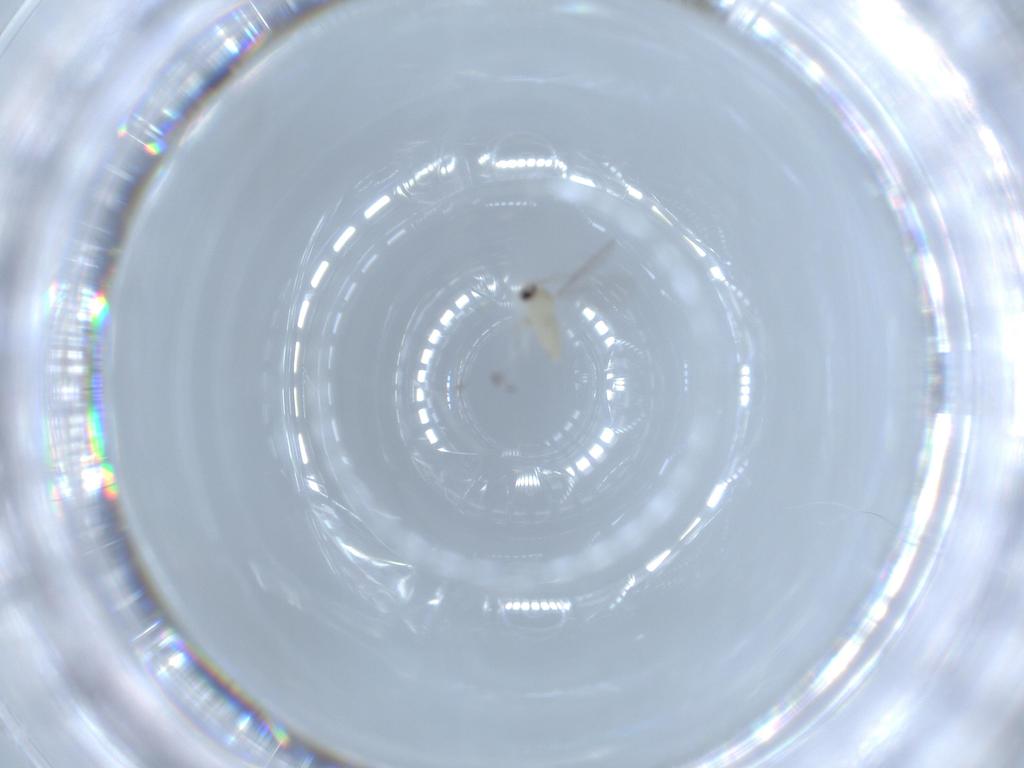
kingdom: Animalia
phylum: Arthropoda
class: Insecta
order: Diptera
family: Cecidomyiidae
